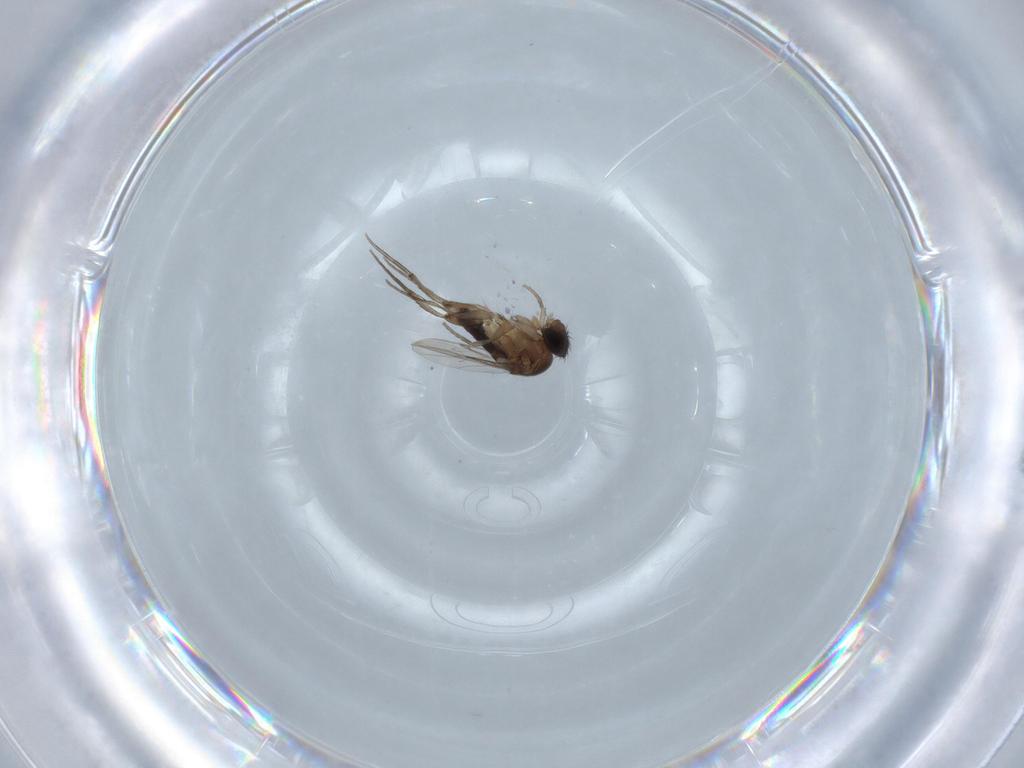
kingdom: Animalia
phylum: Arthropoda
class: Insecta
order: Diptera
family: Phoridae
